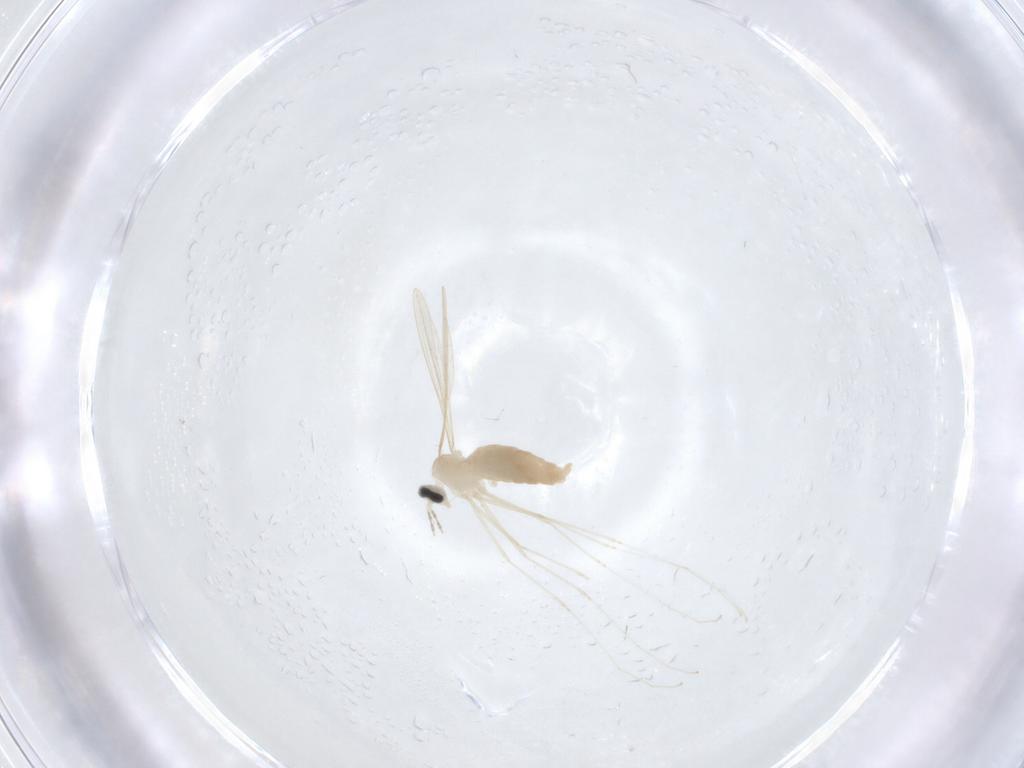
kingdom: Animalia
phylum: Arthropoda
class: Insecta
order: Diptera
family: Cecidomyiidae
